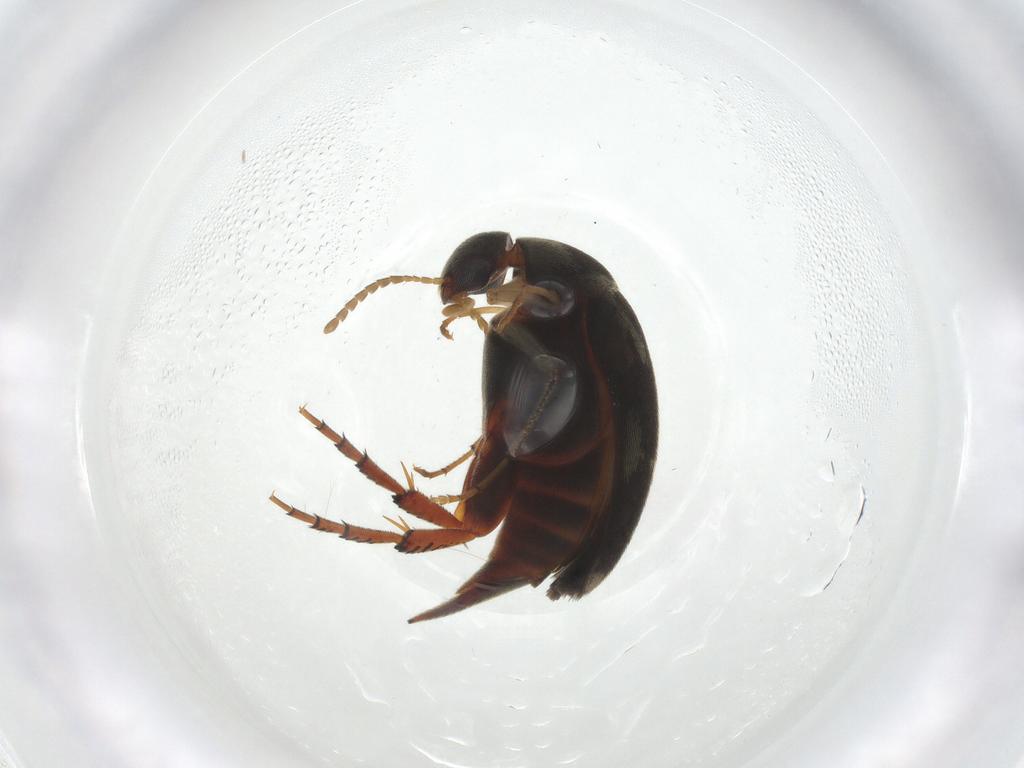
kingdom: Animalia
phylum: Arthropoda
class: Insecta
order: Coleoptera
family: Mordellidae
